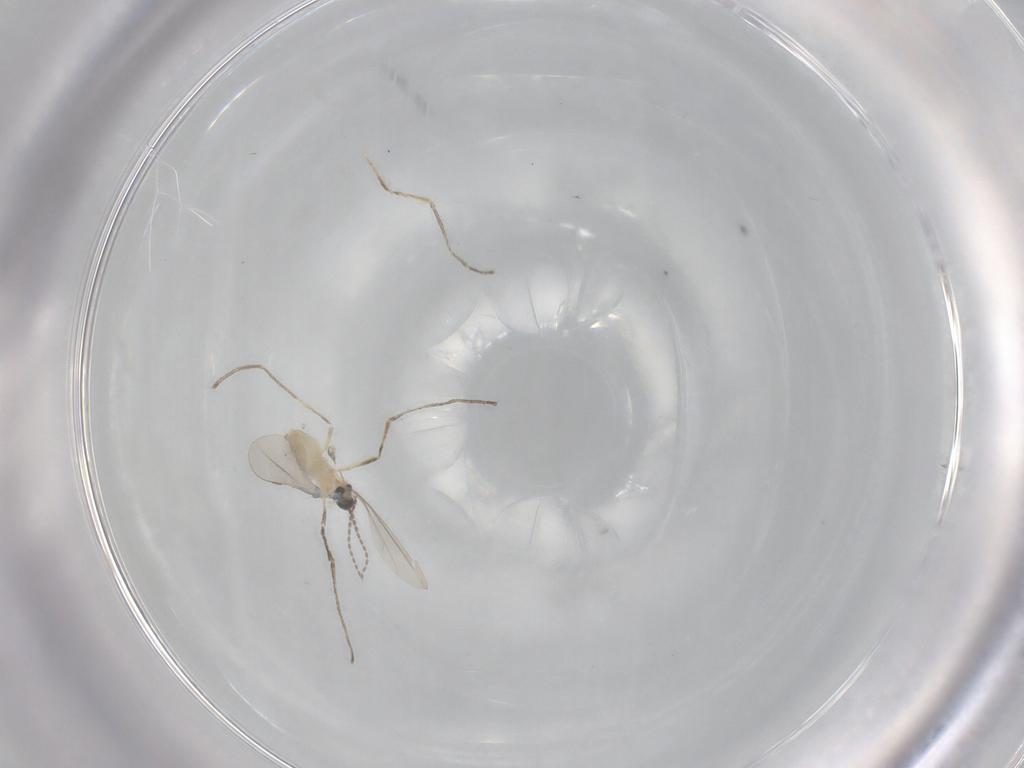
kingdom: Animalia
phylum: Arthropoda
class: Insecta
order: Diptera
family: Cecidomyiidae
